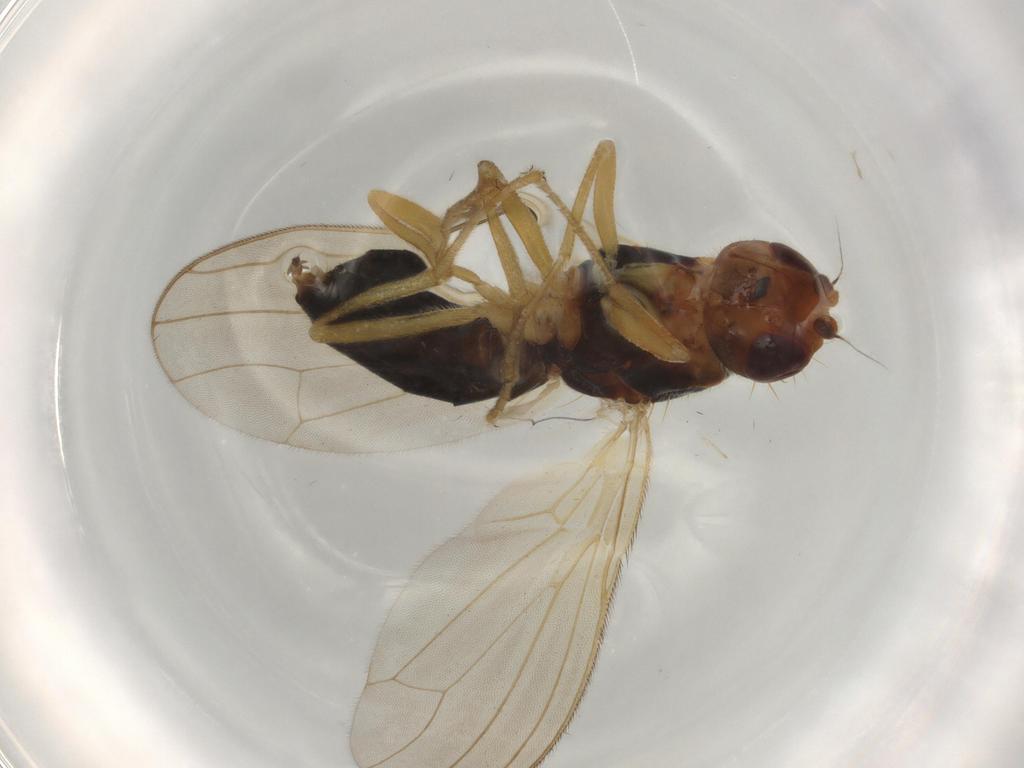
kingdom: Animalia
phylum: Arthropoda
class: Insecta
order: Diptera
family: Hybotidae
